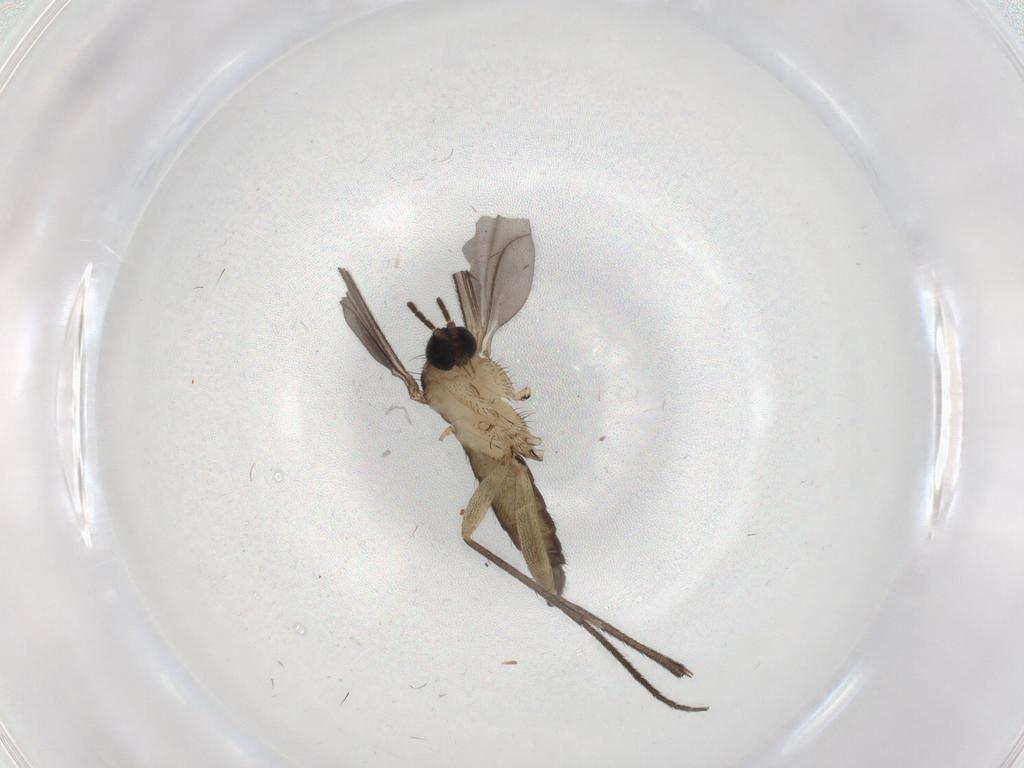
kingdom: Animalia
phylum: Arthropoda
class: Insecta
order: Diptera
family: Sciaridae
